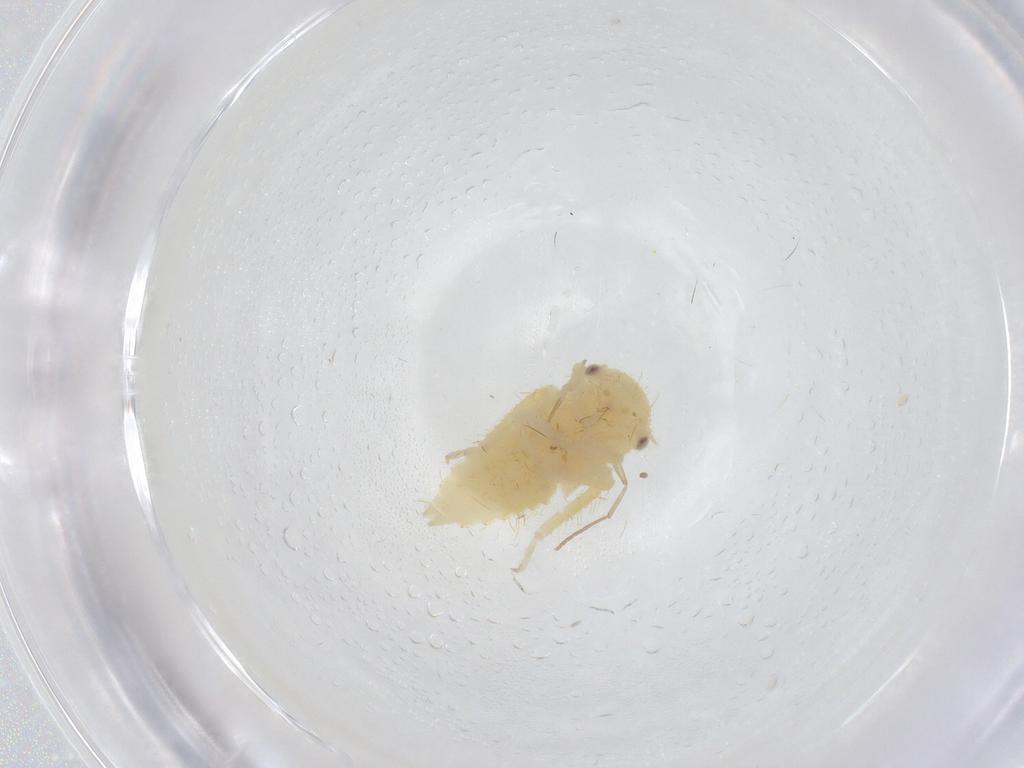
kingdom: Animalia
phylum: Arthropoda
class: Insecta
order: Hemiptera
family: Cicadellidae
